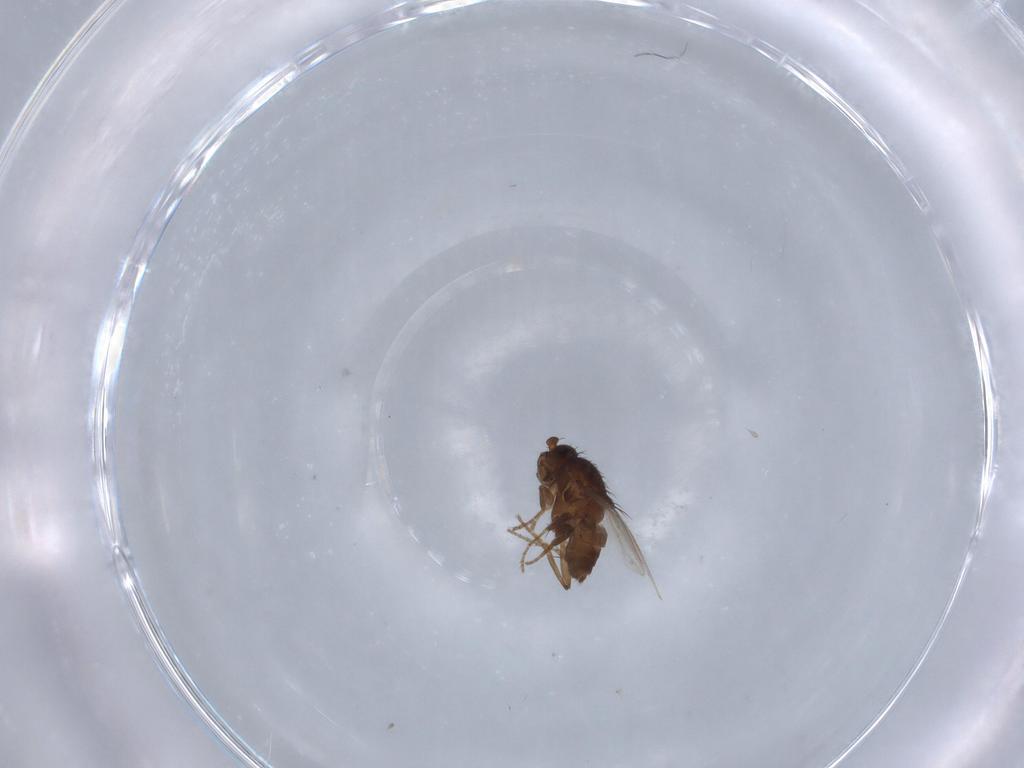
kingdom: Animalia
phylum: Arthropoda
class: Insecta
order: Diptera
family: Sphaeroceridae
